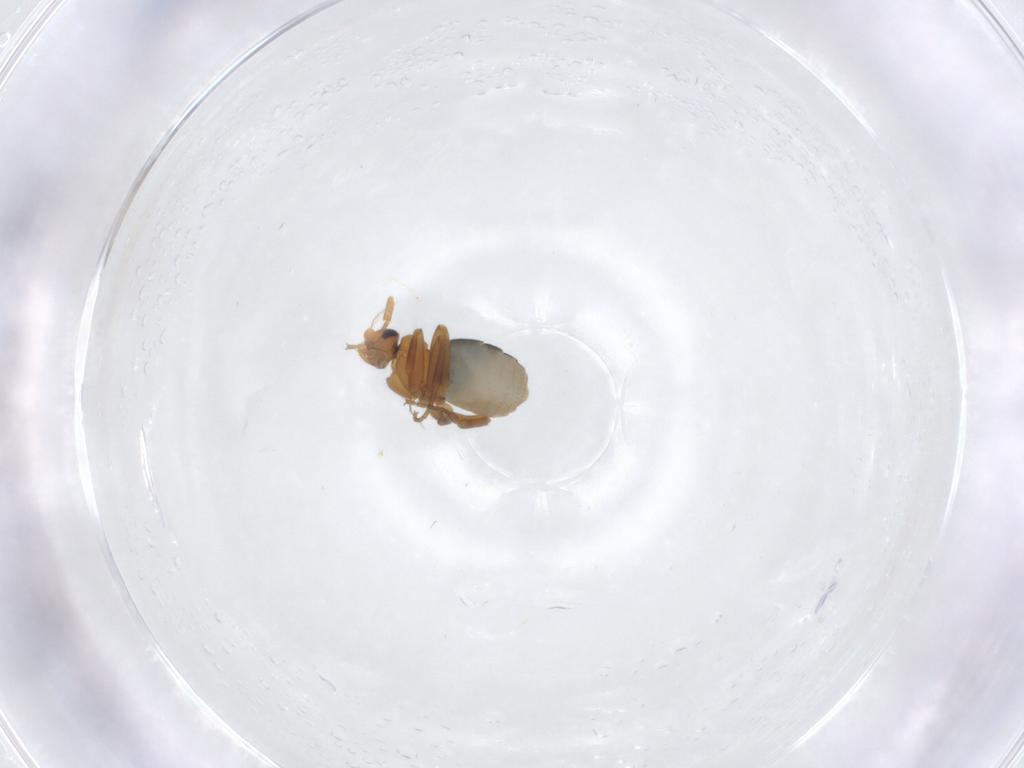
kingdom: Animalia
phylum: Arthropoda
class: Insecta
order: Diptera
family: Phoridae
